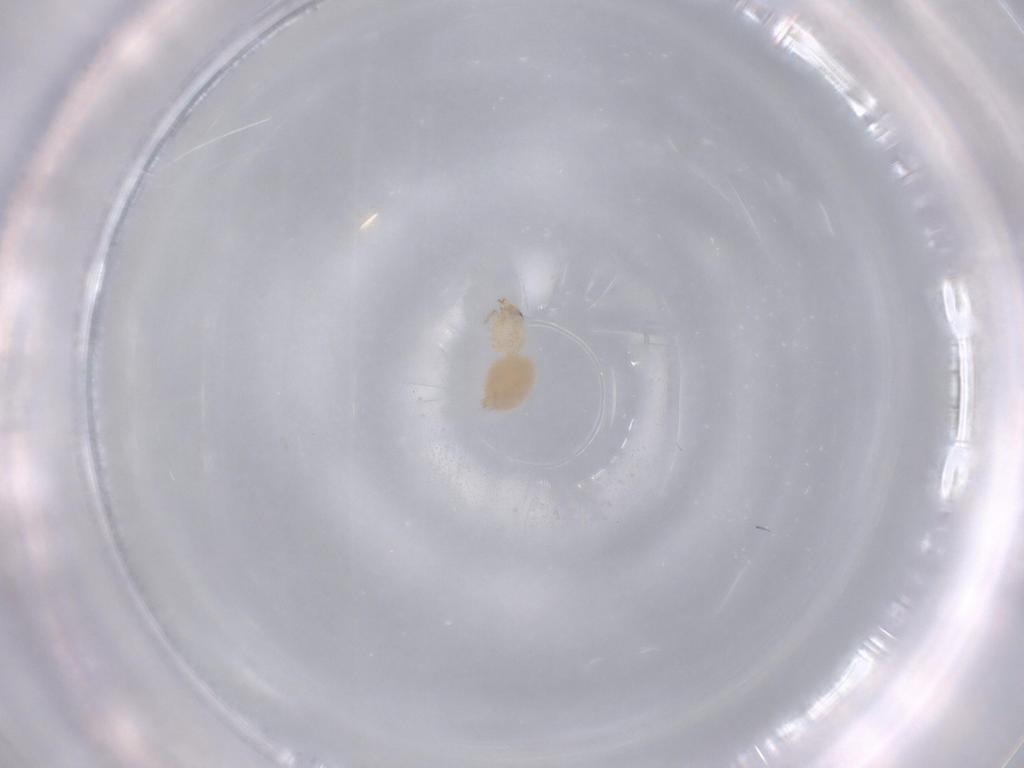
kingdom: Animalia
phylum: Arthropoda
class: Arachnida
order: Araneae
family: Oonopidae
